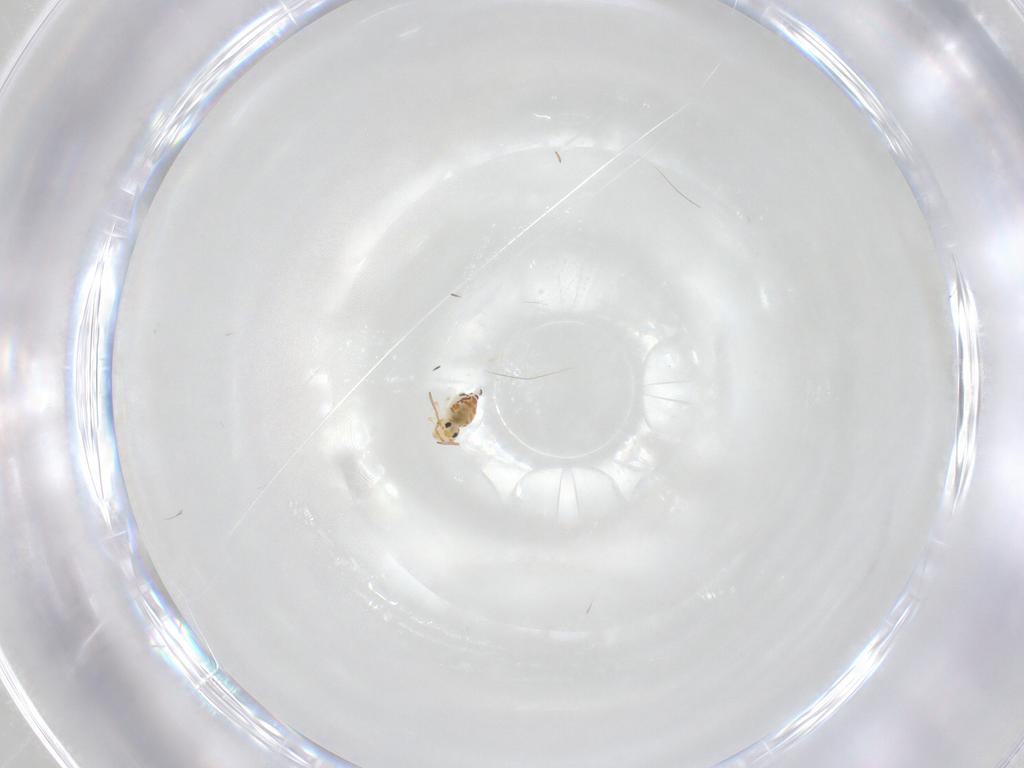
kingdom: Animalia
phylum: Arthropoda
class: Collembola
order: Symphypleona
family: Bourletiellidae
